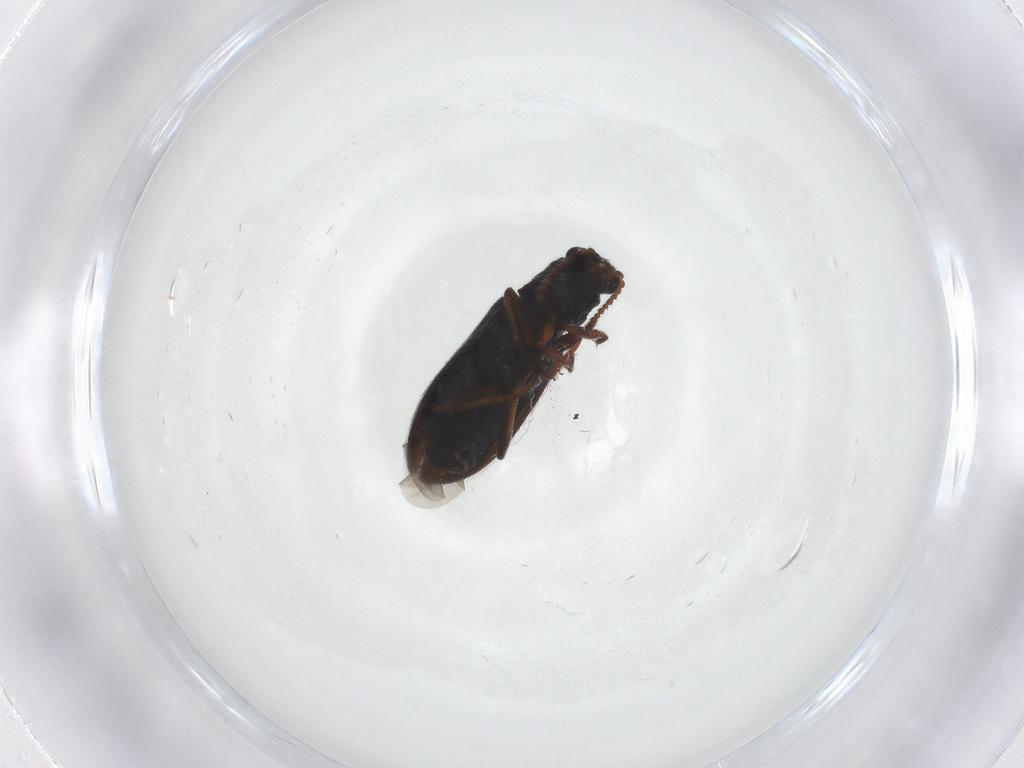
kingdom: Animalia
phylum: Arthropoda
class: Insecta
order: Coleoptera
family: Melyridae
